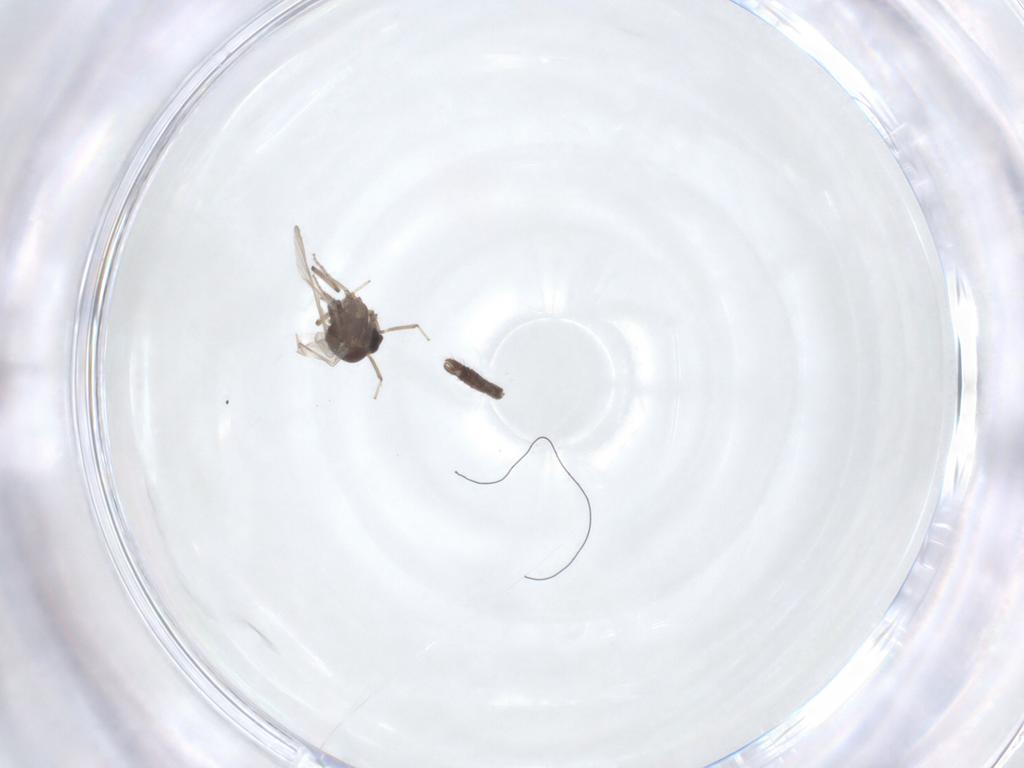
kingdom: Animalia
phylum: Arthropoda
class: Insecta
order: Diptera
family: Ceratopogonidae
